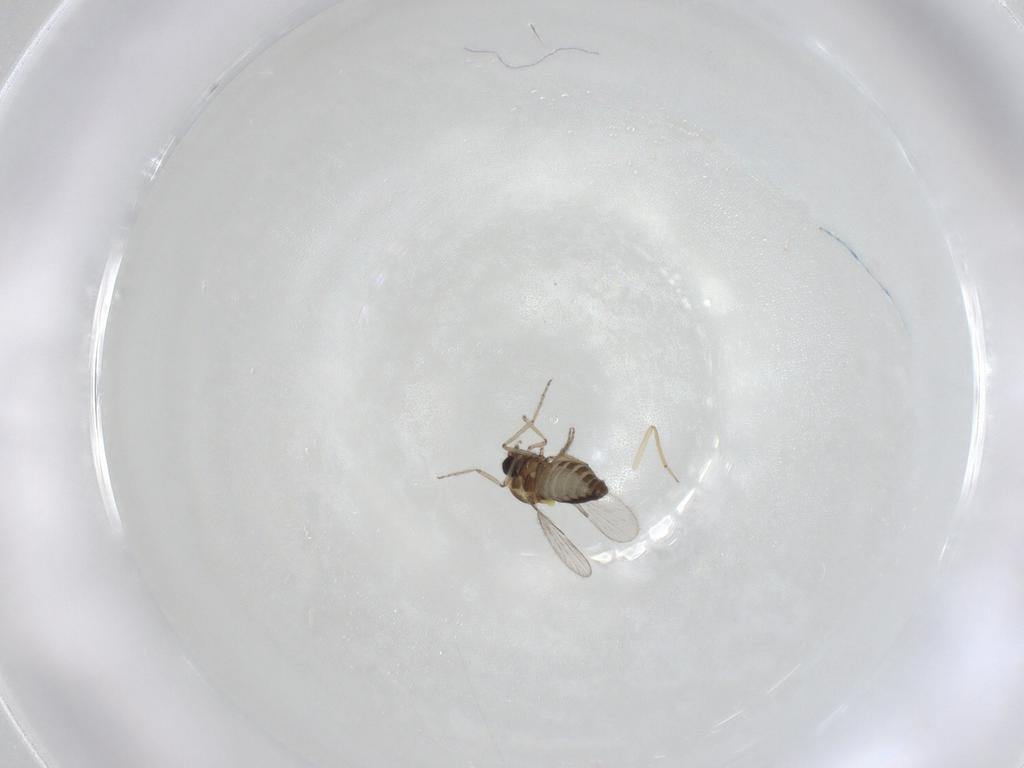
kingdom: Animalia
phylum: Arthropoda
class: Insecta
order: Diptera
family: Ceratopogonidae
